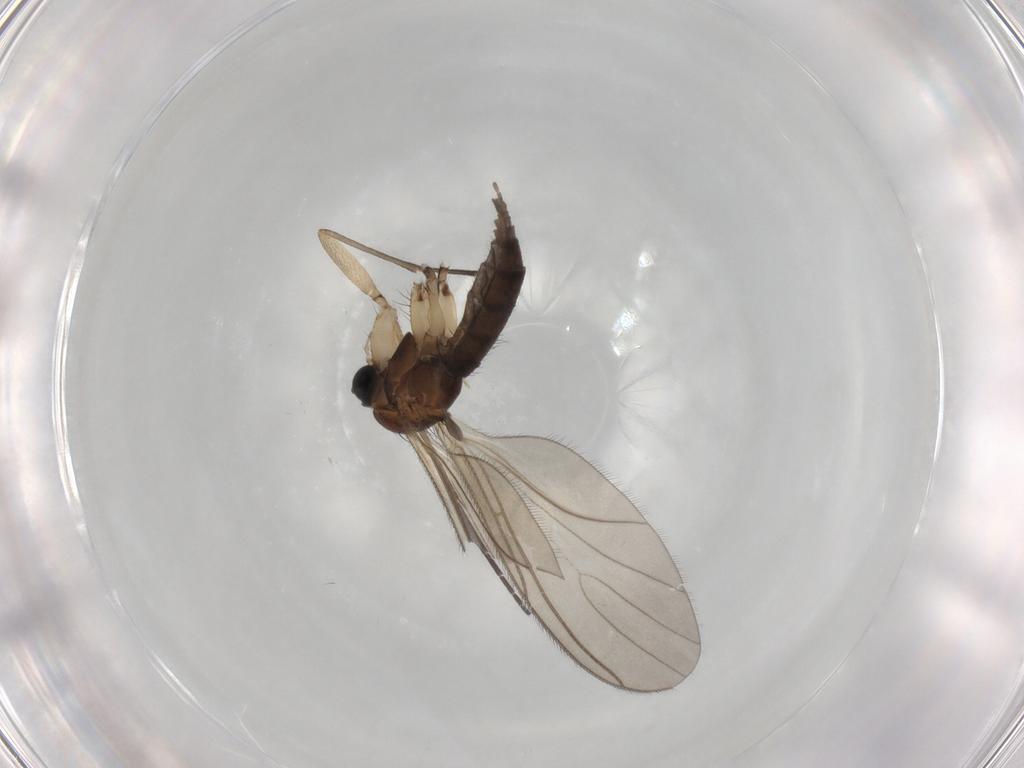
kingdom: Animalia
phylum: Arthropoda
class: Insecta
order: Diptera
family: Sciaridae
